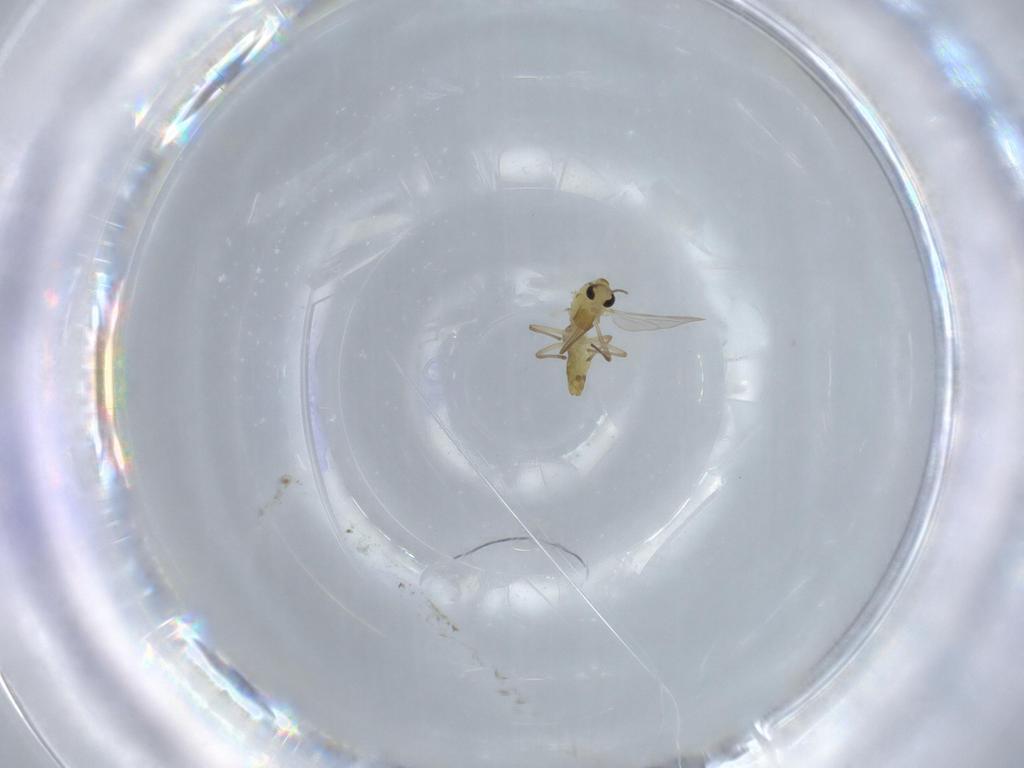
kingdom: Animalia
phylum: Arthropoda
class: Insecta
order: Diptera
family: Chironomidae
